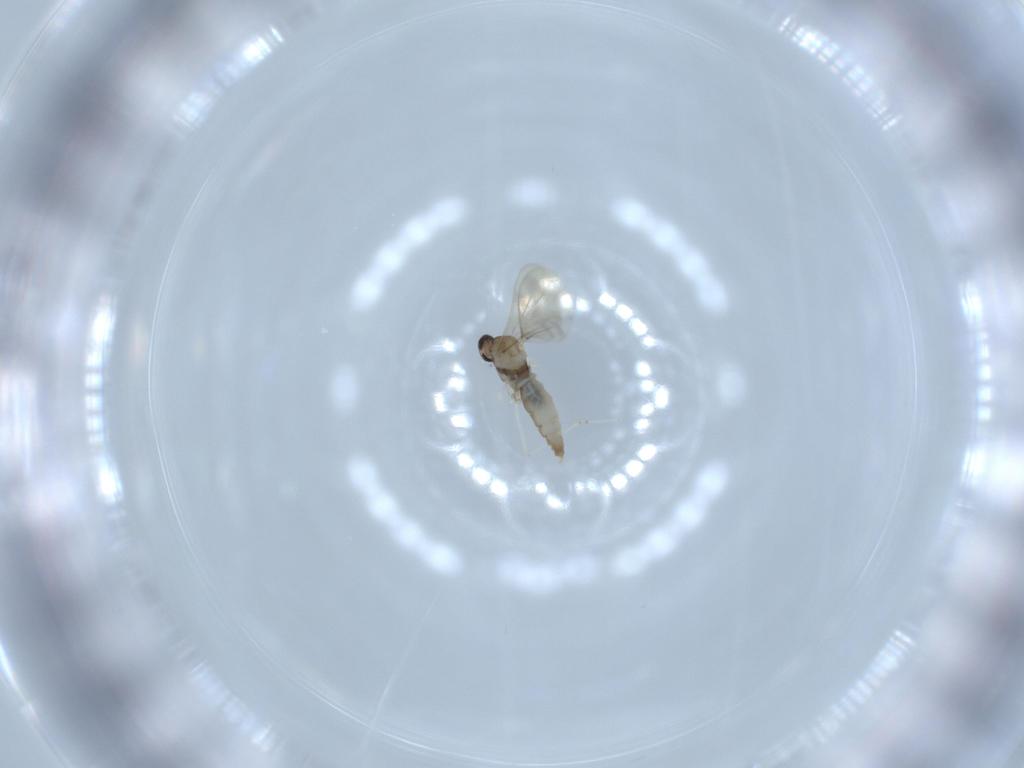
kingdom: Animalia
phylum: Arthropoda
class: Insecta
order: Diptera
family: Cecidomyiidae
